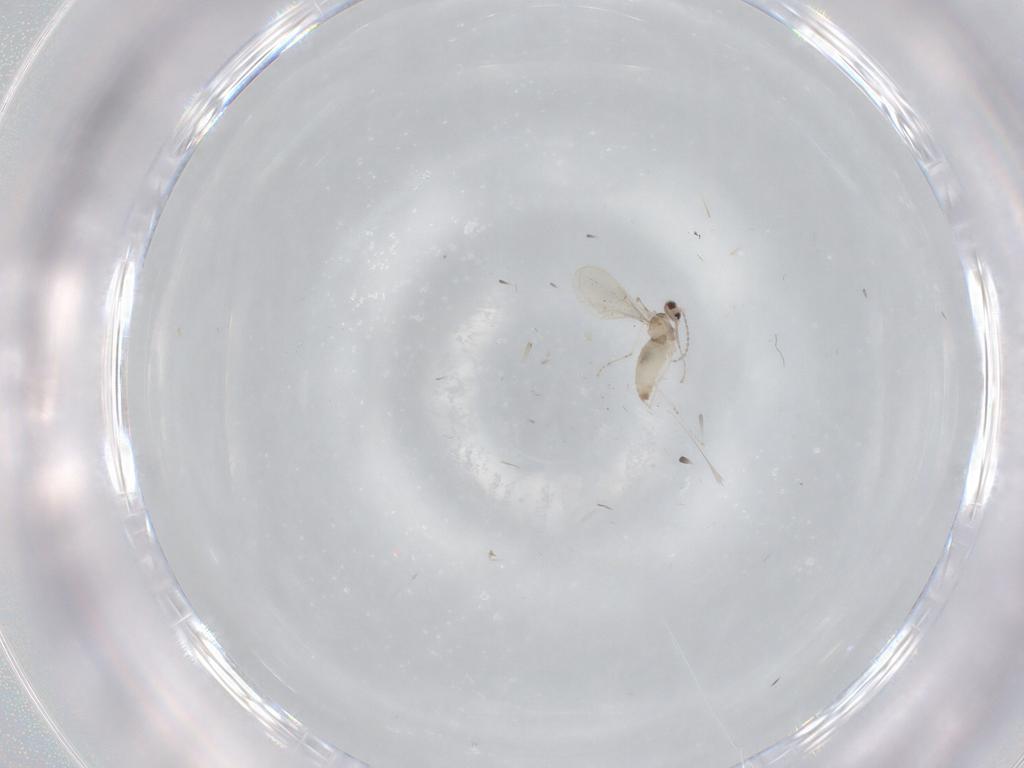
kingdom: Animalia
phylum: Arthropoda
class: Insecta
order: Diptera
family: Cecidomyiidae
